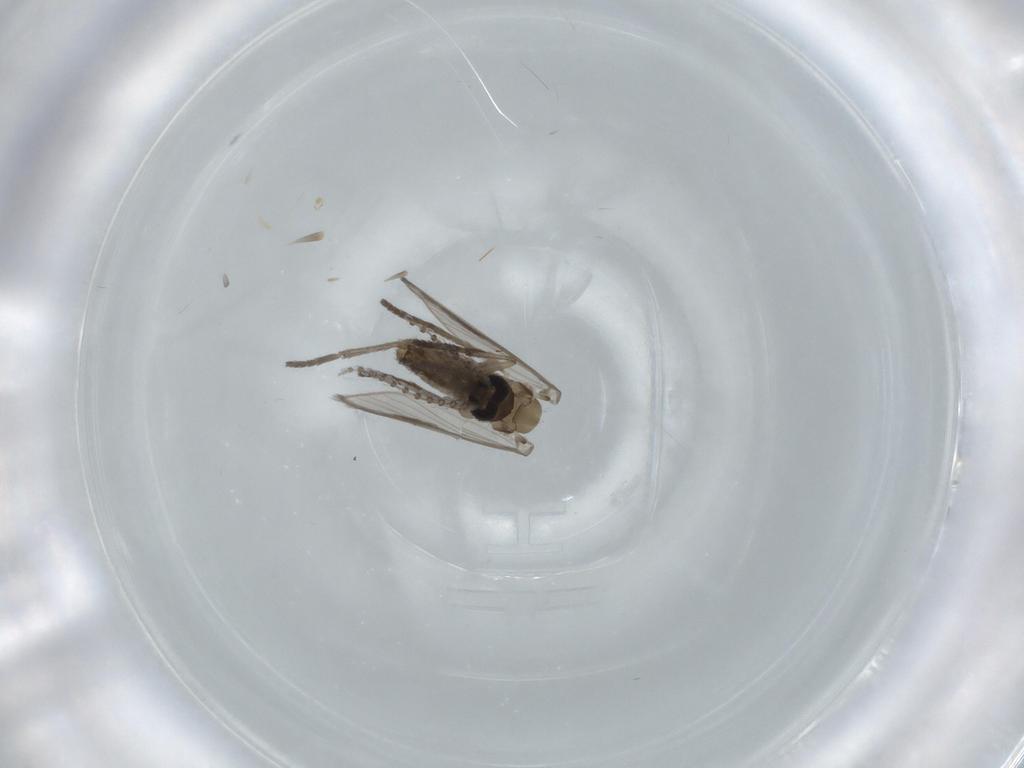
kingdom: Animalia
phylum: Arthropoda
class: Insecta
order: Diptera
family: Psychodidae
